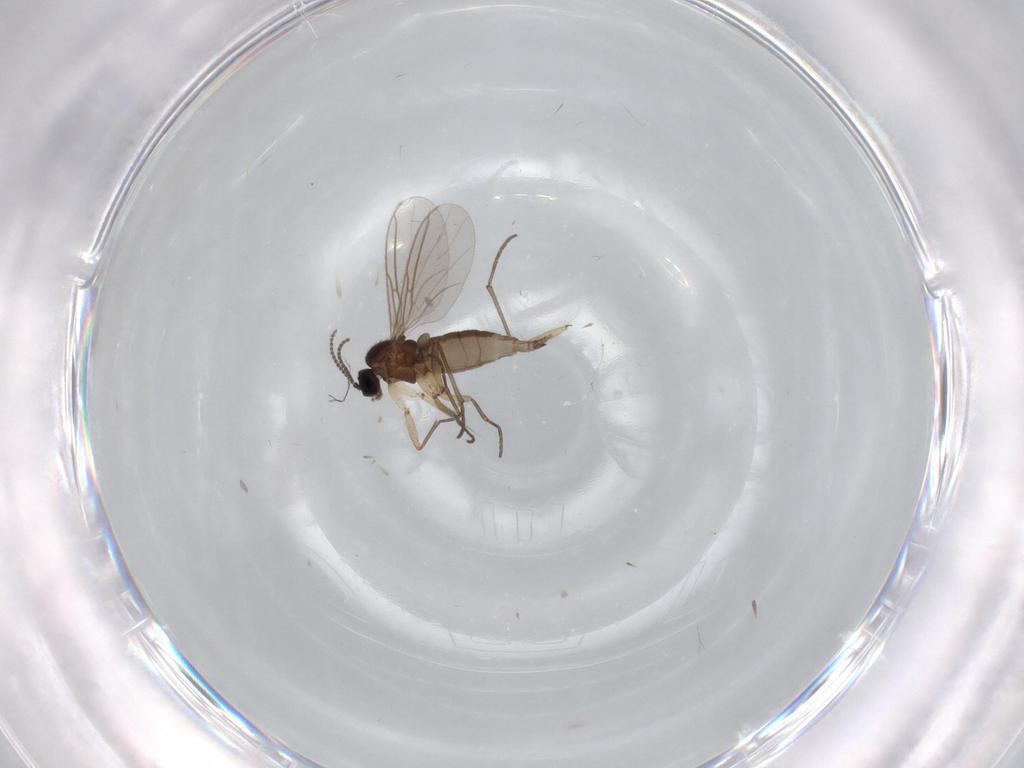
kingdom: Animalia
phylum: Arthropoda
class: Insecta
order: Diptera
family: Sciaridae
